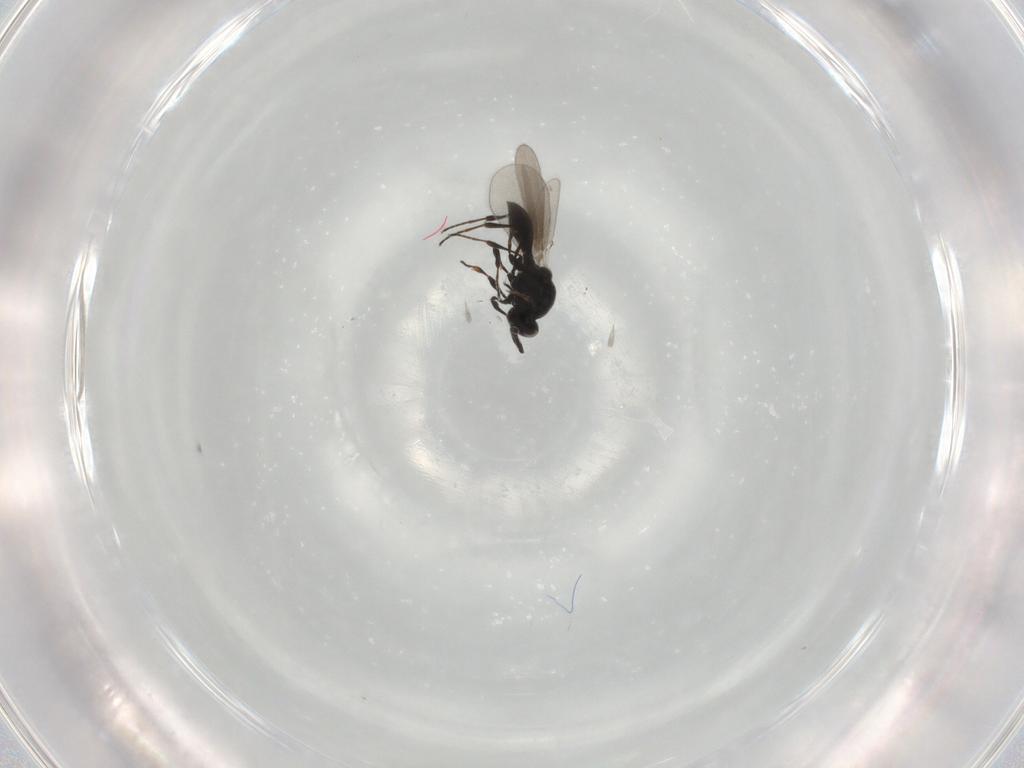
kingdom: Animalia
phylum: Arthropoda
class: Insecta
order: Hymenoptera
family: Platygastridae
